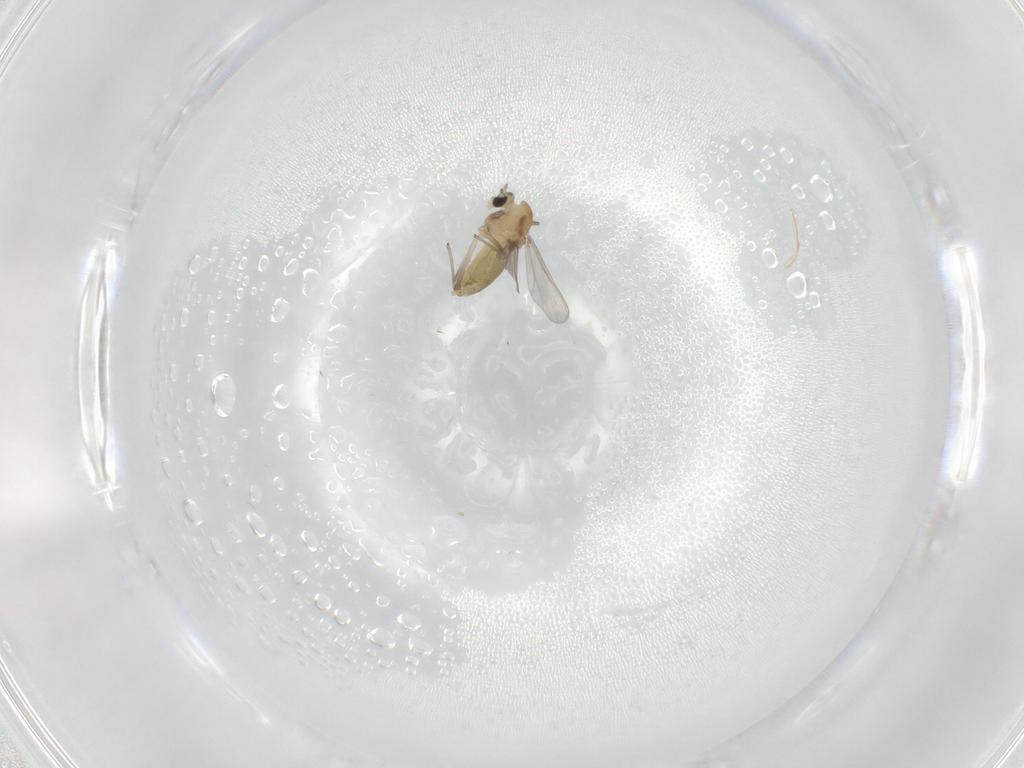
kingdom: Animalia
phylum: Arthropoda
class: Insecta
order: Diptera
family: Chironomidae
